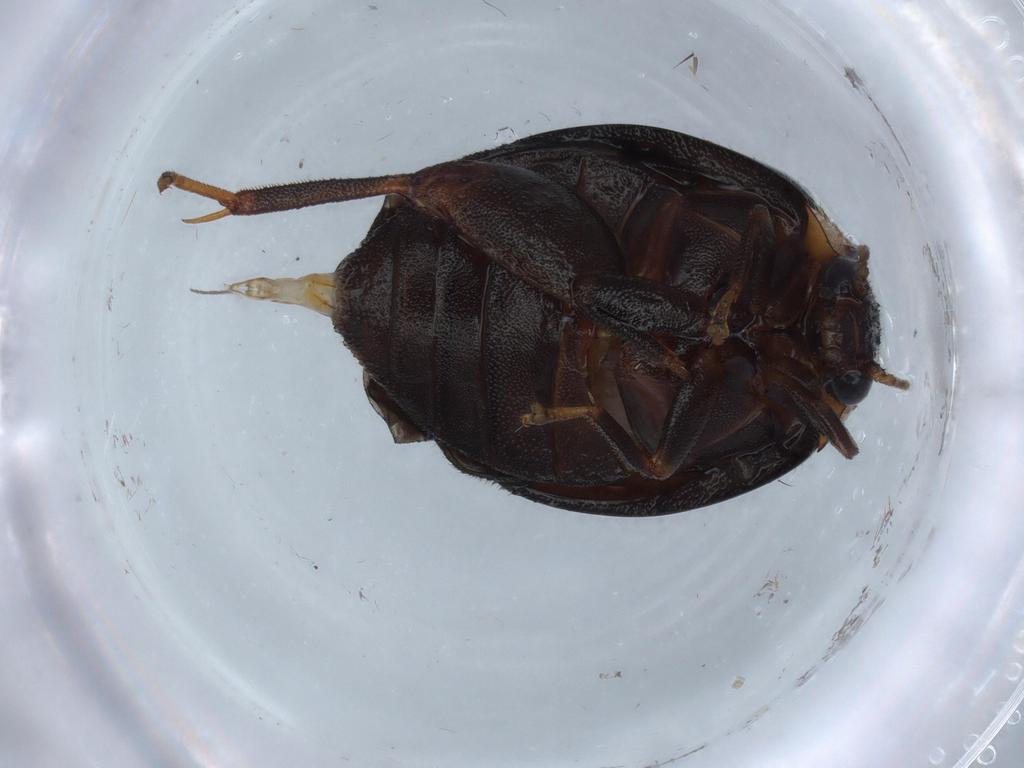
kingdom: Animalia
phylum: Arthropoda
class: Insecta
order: Coleoptera
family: Scirtidae
